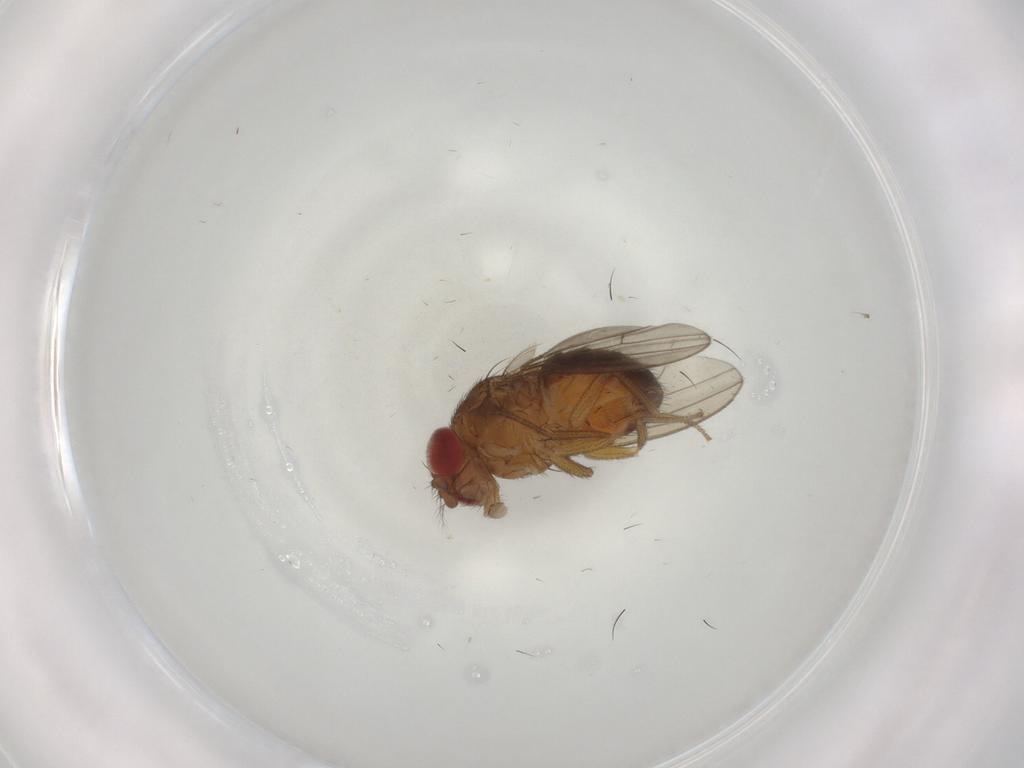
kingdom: Animalia
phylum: Arthropoda
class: Insecta
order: Diptera
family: Drosophilidae
